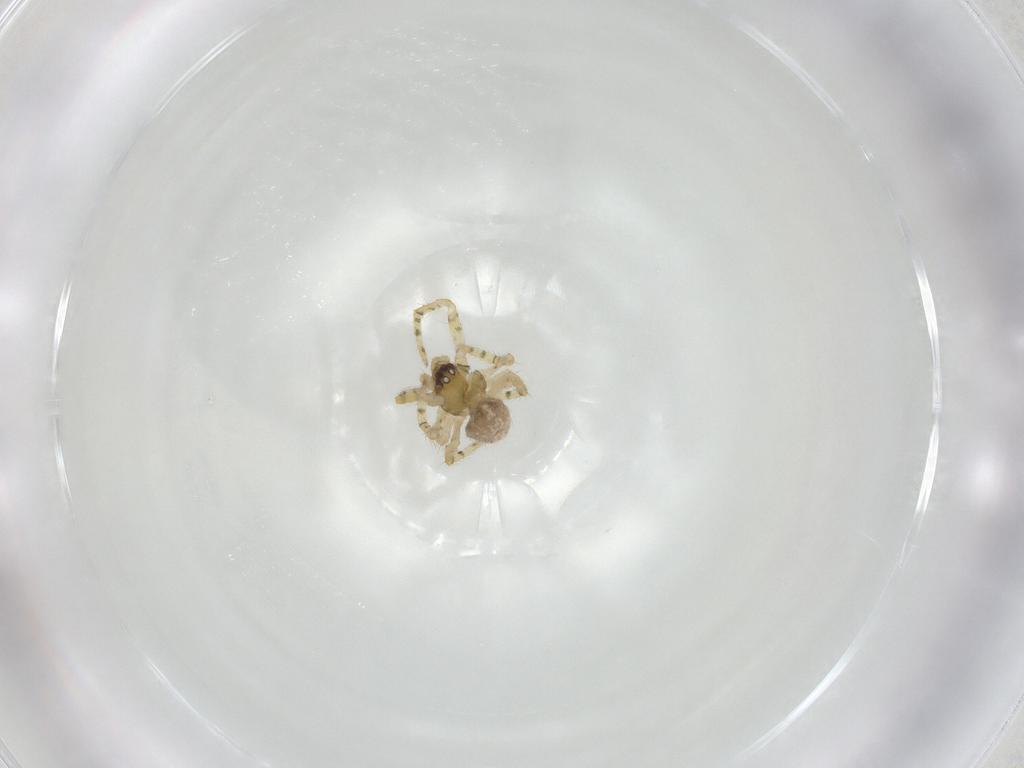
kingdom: Animalia
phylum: Arthropoda
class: Arachnida
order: Araneae
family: Theridiidae
